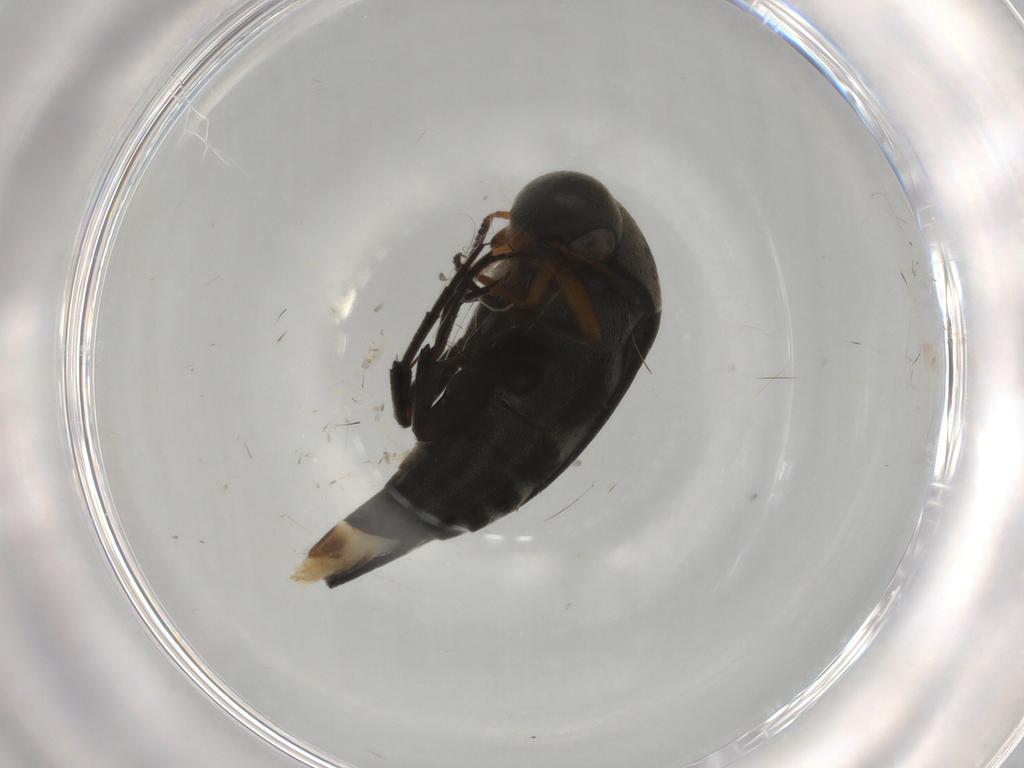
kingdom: Animalia
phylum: Arthropoda
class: Insecta
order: Coleoptera
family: Mordellidae
